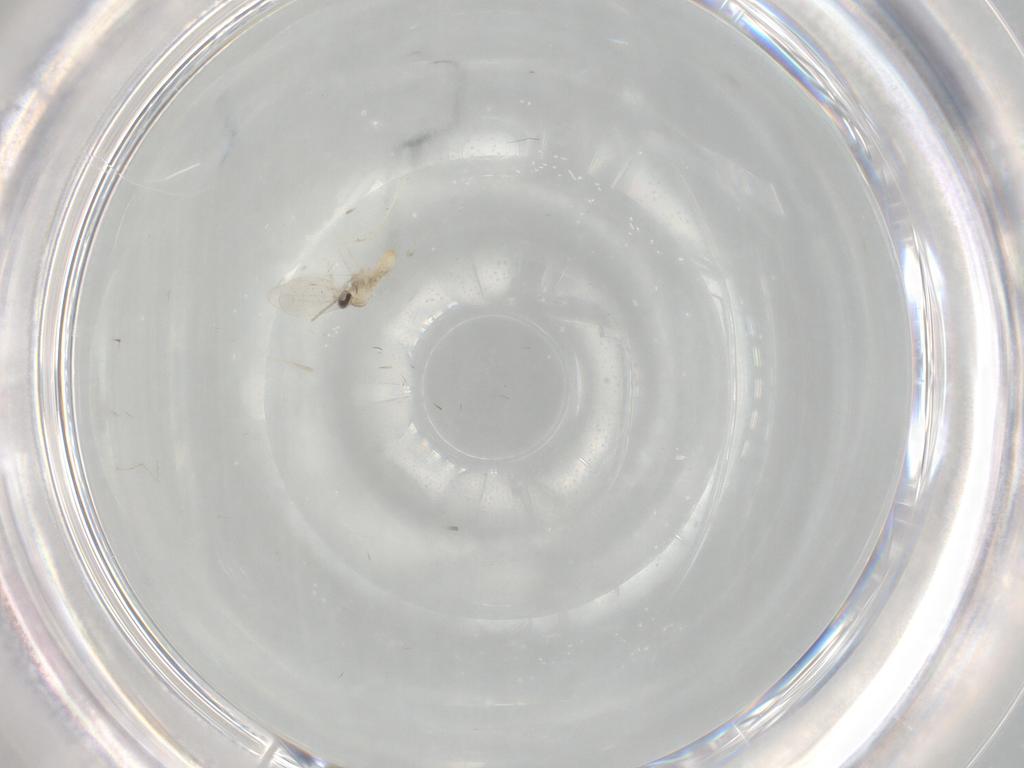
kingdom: Animalia
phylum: Arthropoda
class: Insecta
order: Diptera
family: Cecidomyiidae
